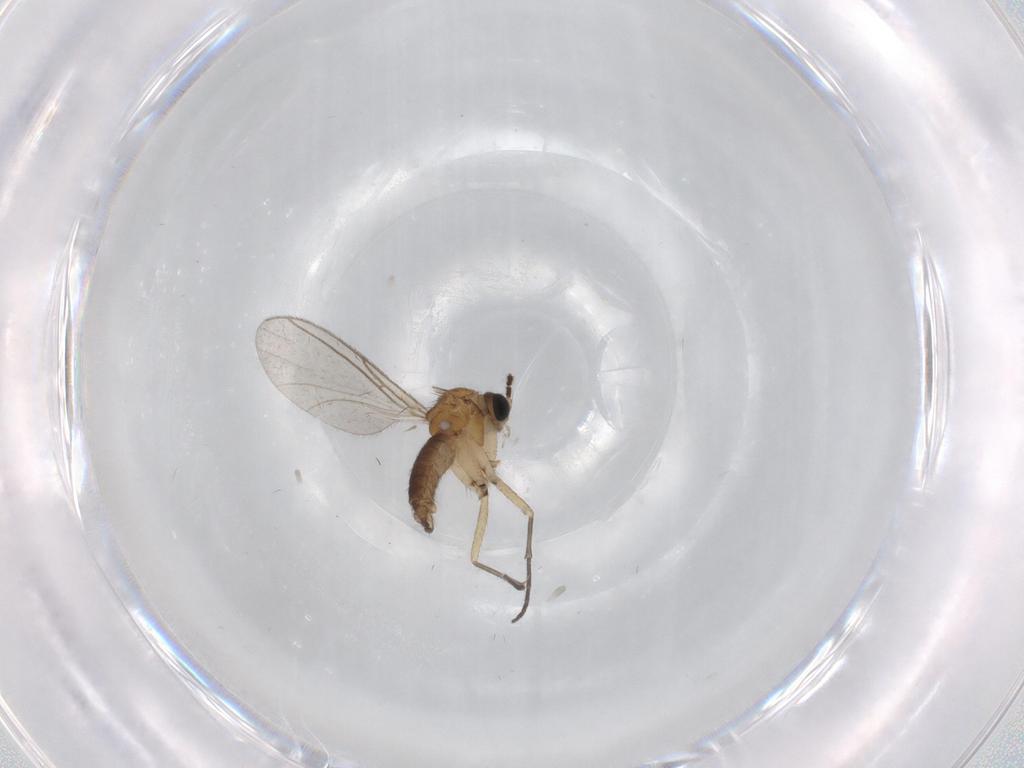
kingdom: Animalia
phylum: Arthropoda
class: Insecta
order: Diptera
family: Sciaridae
